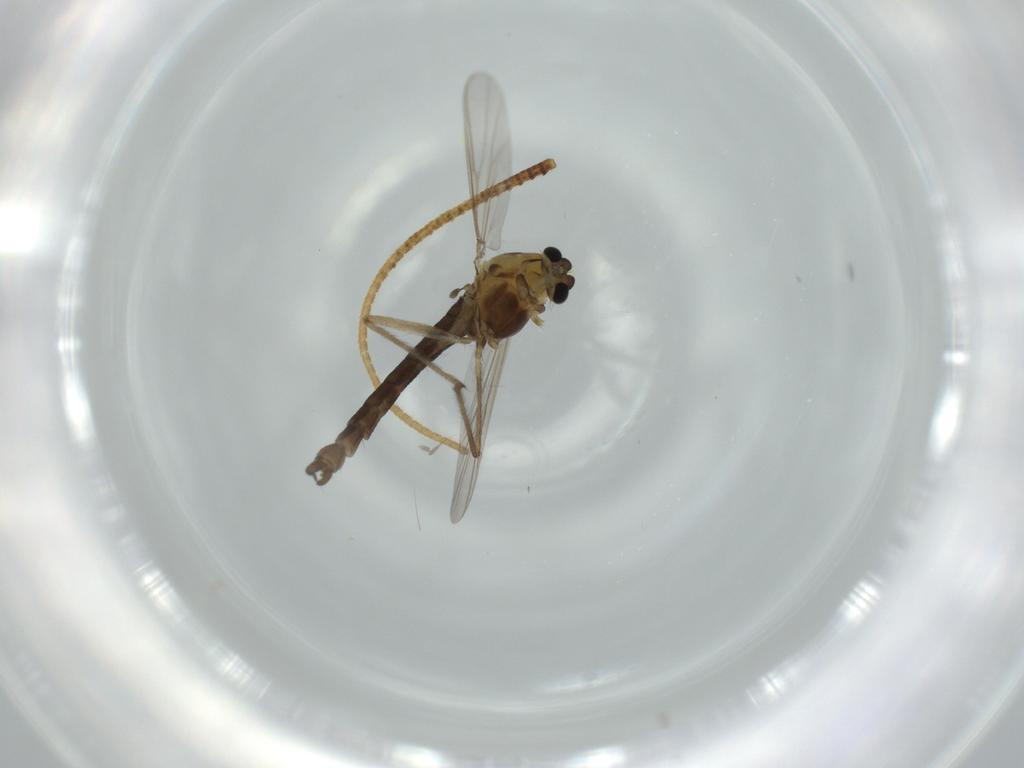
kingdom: Animalia
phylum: Arthropoda
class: Insecta
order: Diptera
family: Chironomidae
